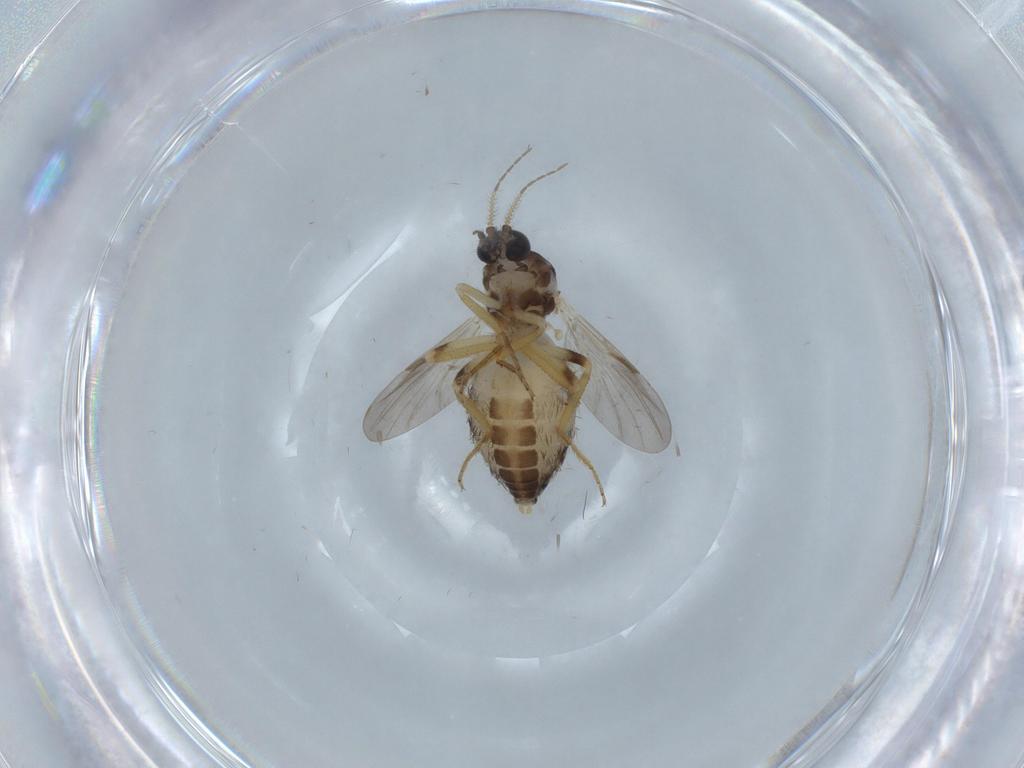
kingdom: Animalia
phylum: Arthropoda
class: Insecta
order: Diptera
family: Ceratopogonidae
